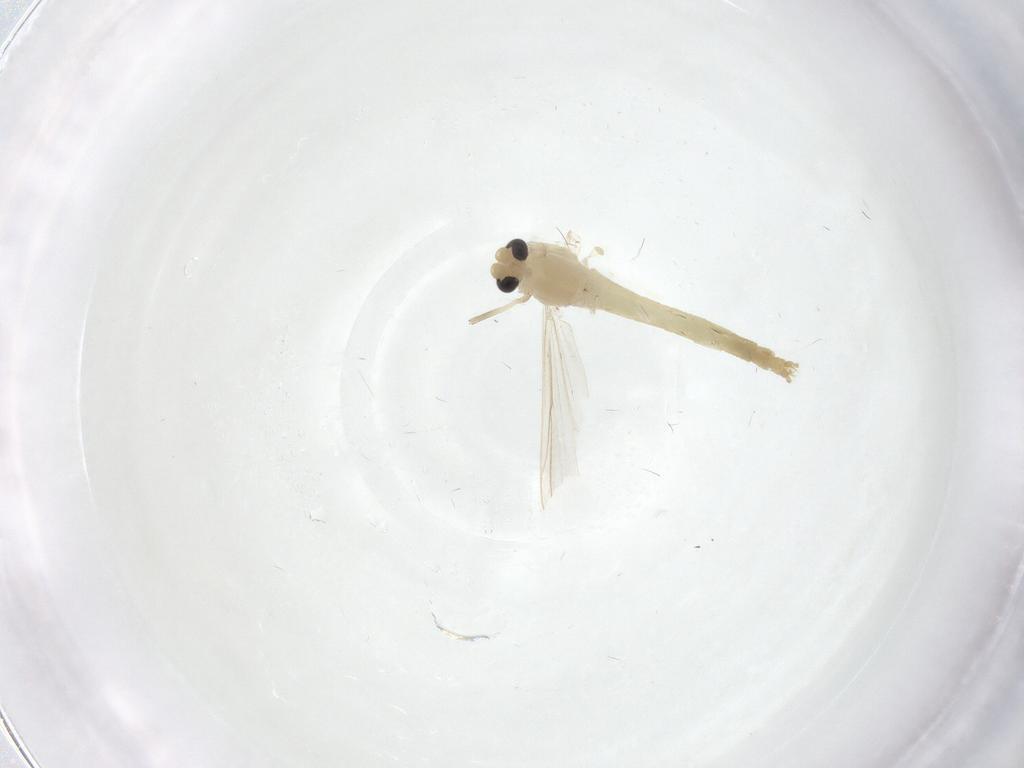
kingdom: Animalia
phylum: Arthropoda
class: Insecta
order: Diptera
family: Chironomidae
